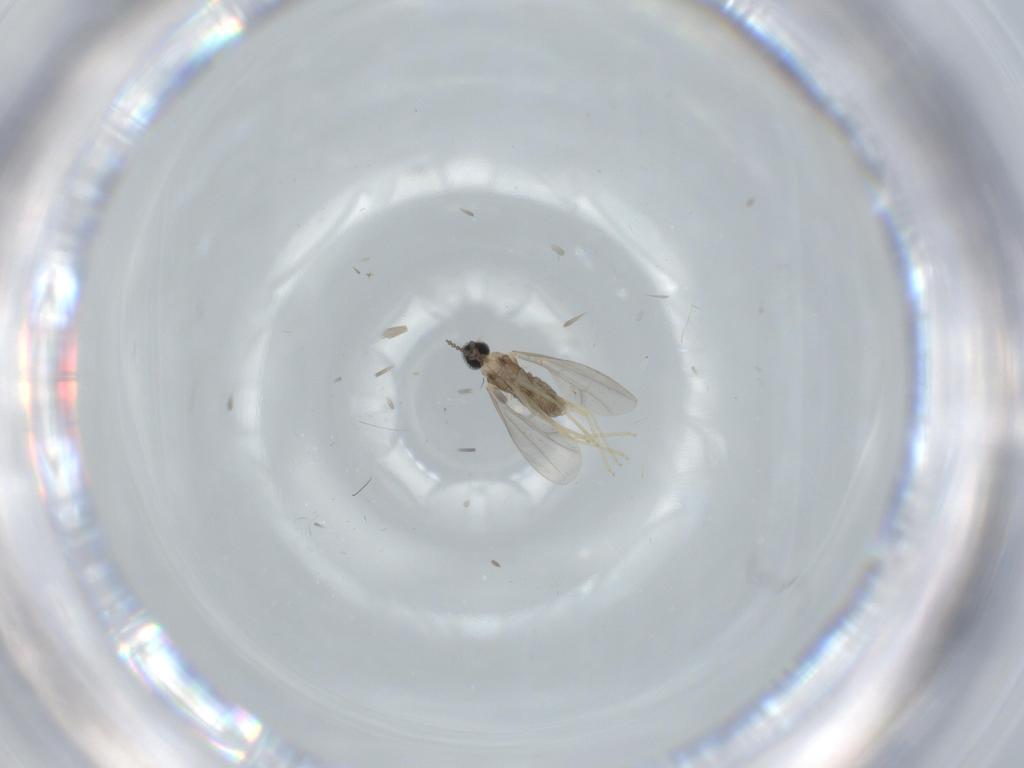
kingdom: Animalia
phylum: Arthropoda
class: Insecta
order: Diptera
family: Cecidomyiidae
